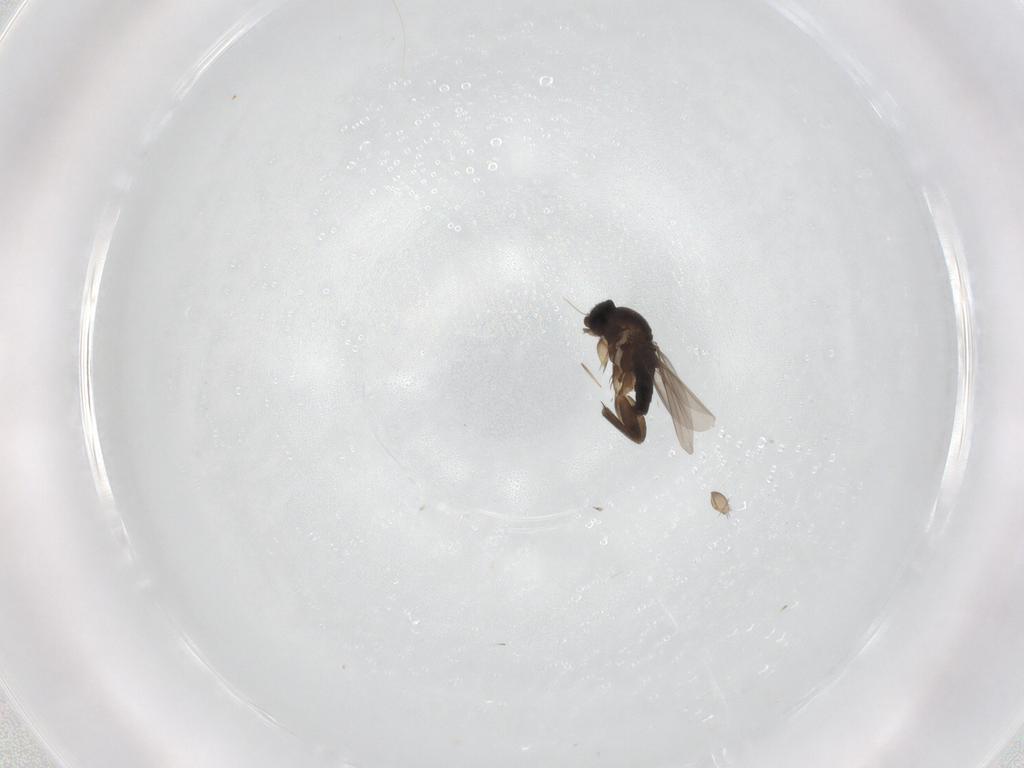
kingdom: Animalia
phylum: Arthropoda
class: Insecta
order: Diptera
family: Phoridae
